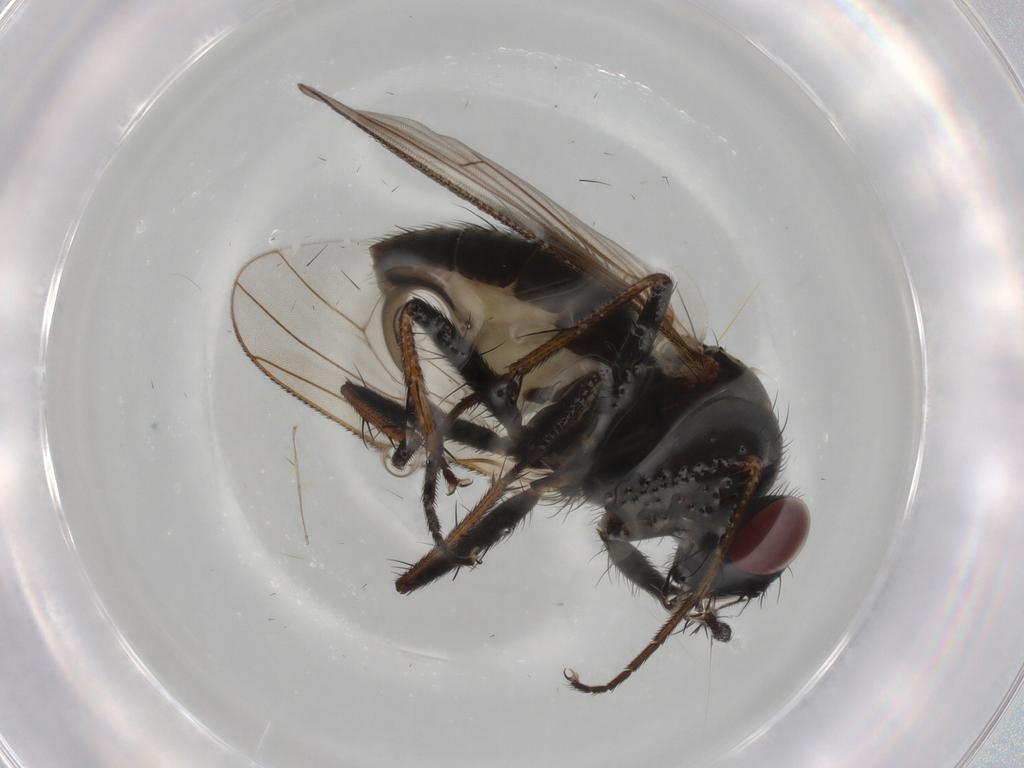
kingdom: Animalia
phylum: Arthropoda
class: Insecta
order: Diptera
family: Muscidae
